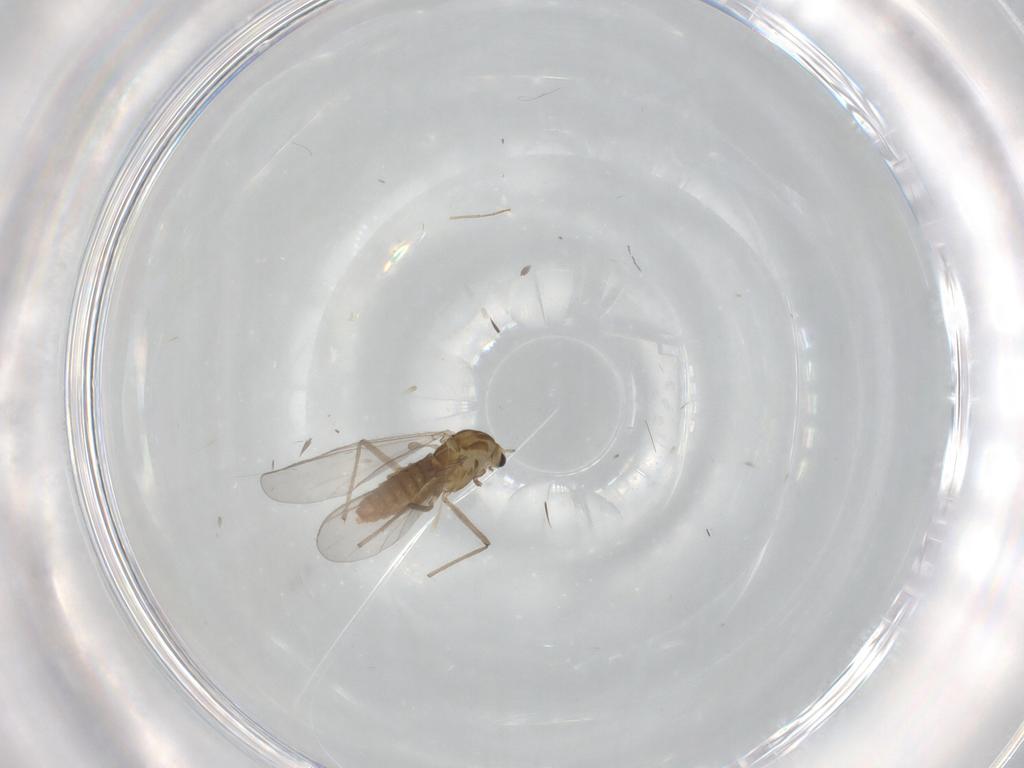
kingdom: Animalia
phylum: Arthropoda
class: Insecta
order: Diptera
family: Chironomidae
